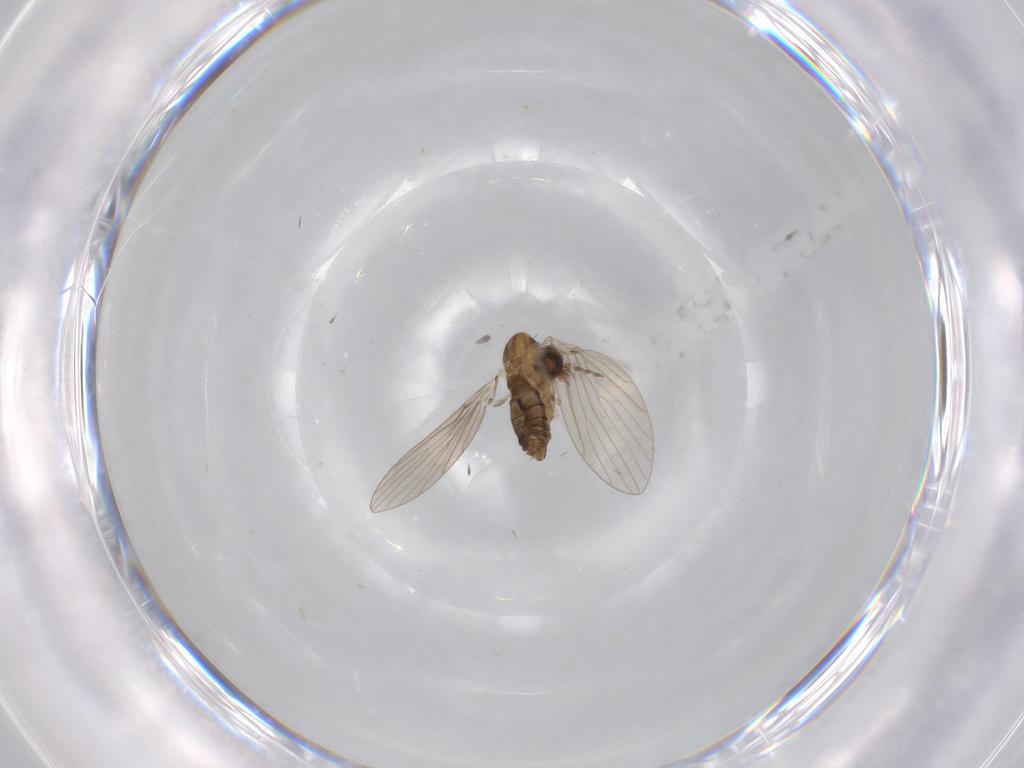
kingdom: Animalia
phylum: Arthropoda
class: Insecta
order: Diptera
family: Psychodidae
